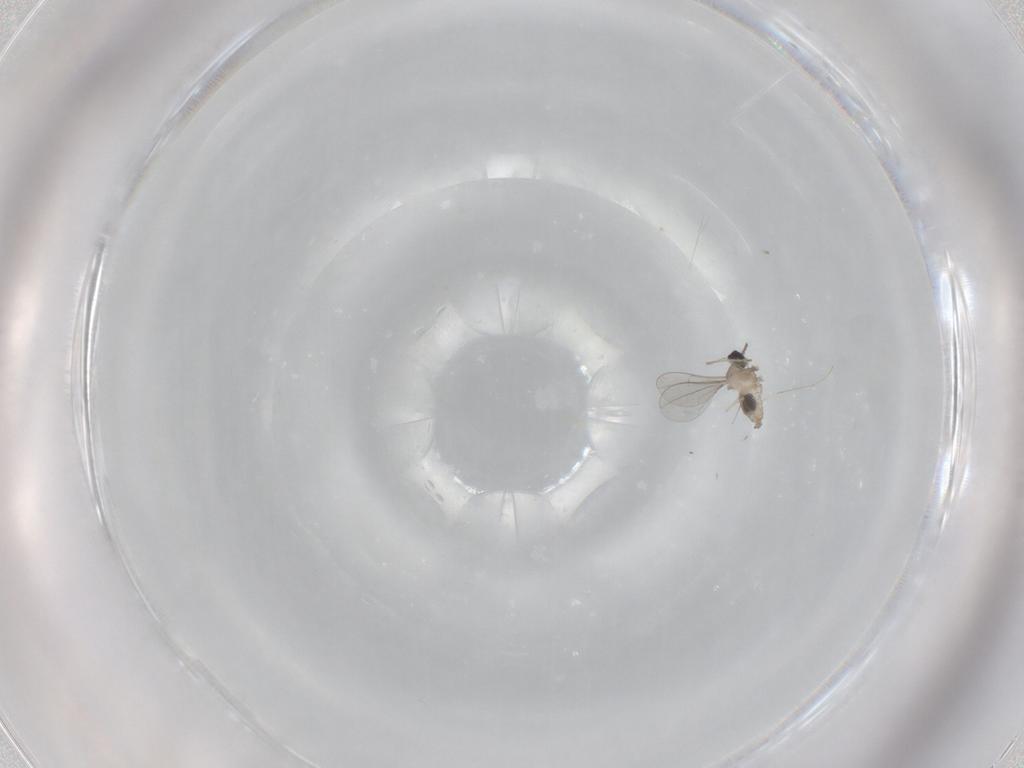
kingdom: Animalia
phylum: Arthropoda
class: Insecta
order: Diptera
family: Cecidomyiidae
